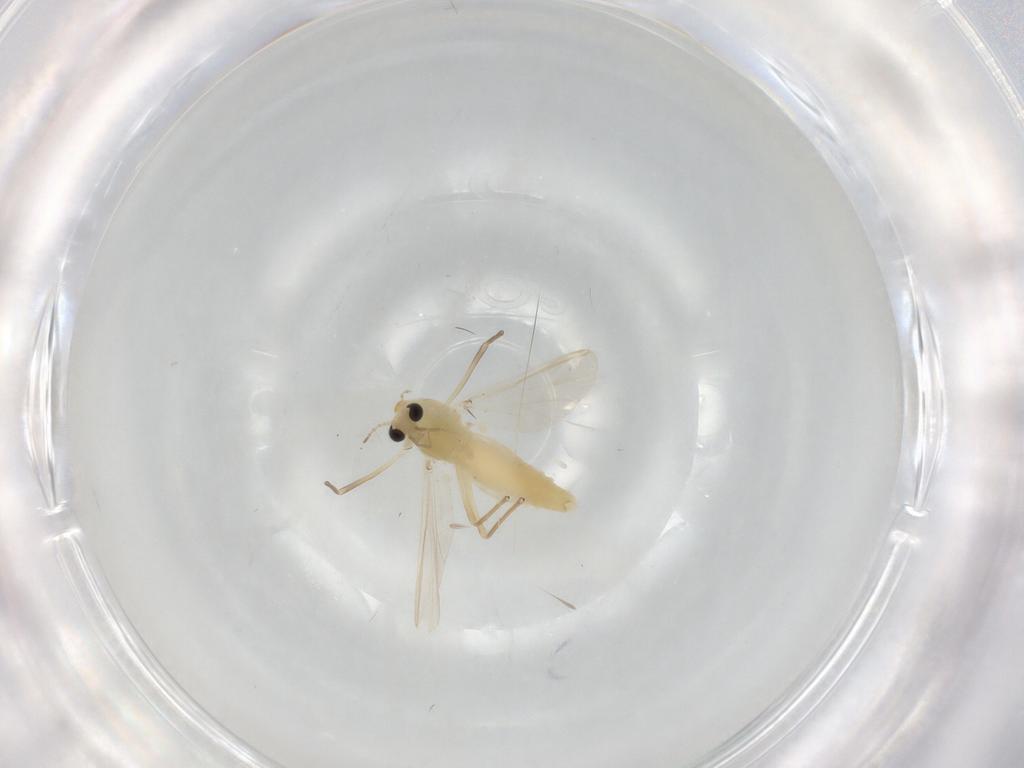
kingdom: Animalia
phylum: Arthropoda
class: Insecta
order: Diptera
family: Chironomidae
